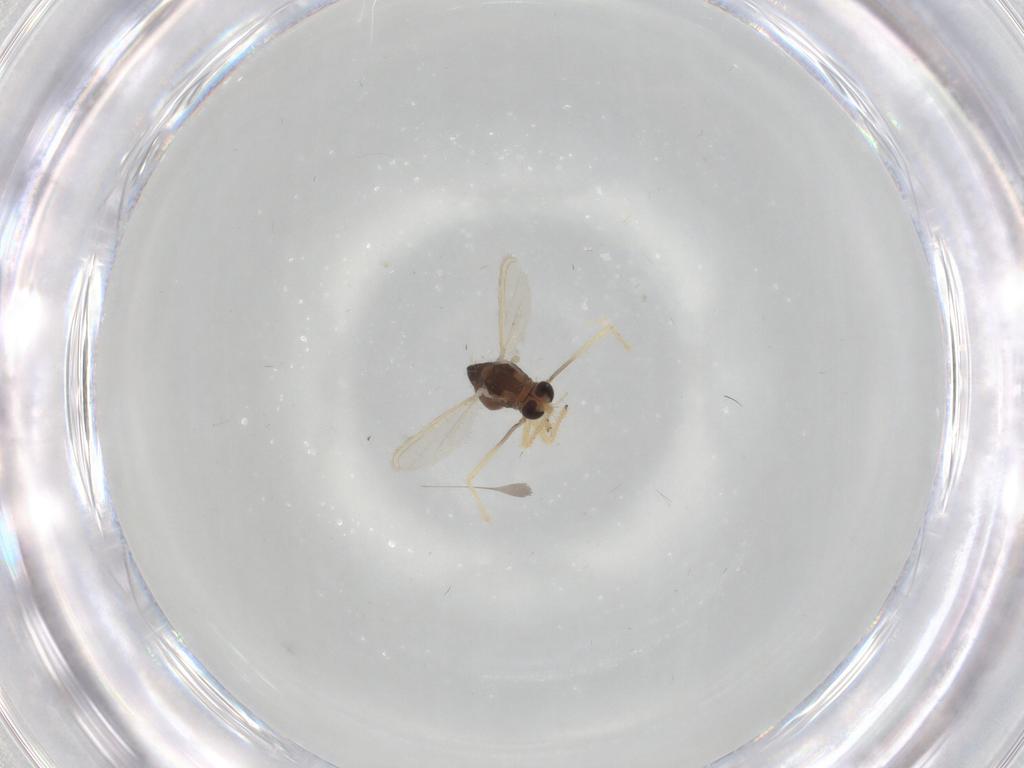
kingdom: Animalia
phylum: Arthropoda
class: Insecta
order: Diptera
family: Chironomidae
